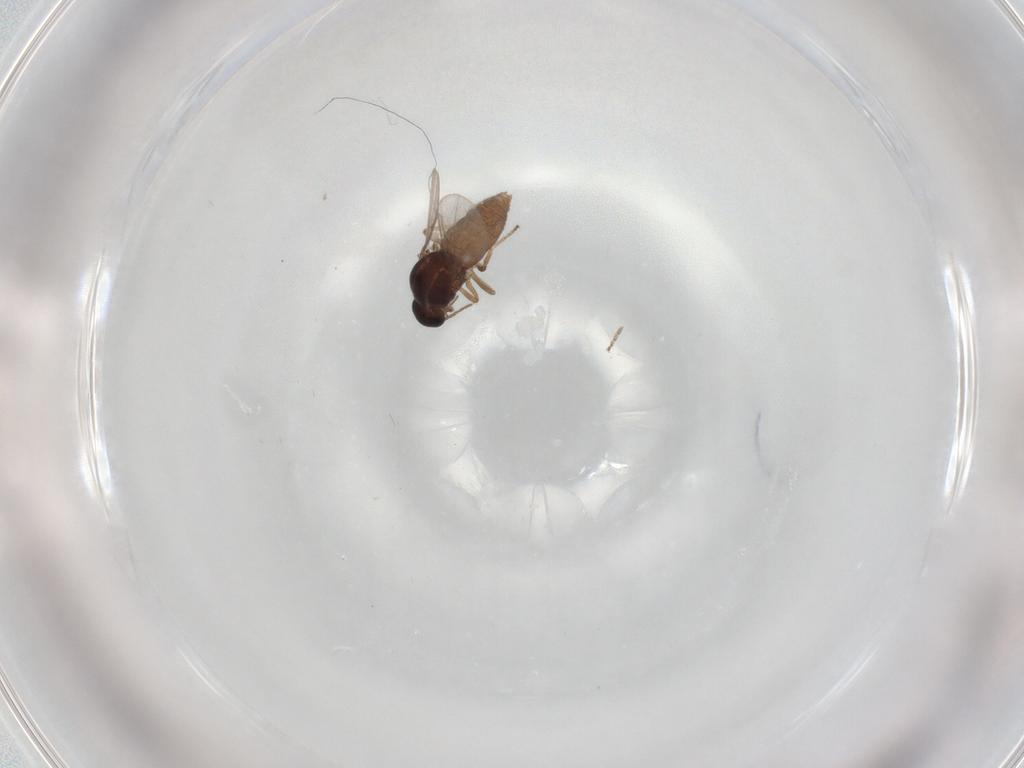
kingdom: Animalia
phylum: Arthropoda
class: Insecta
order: Diptera
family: Ceratopogonidae
